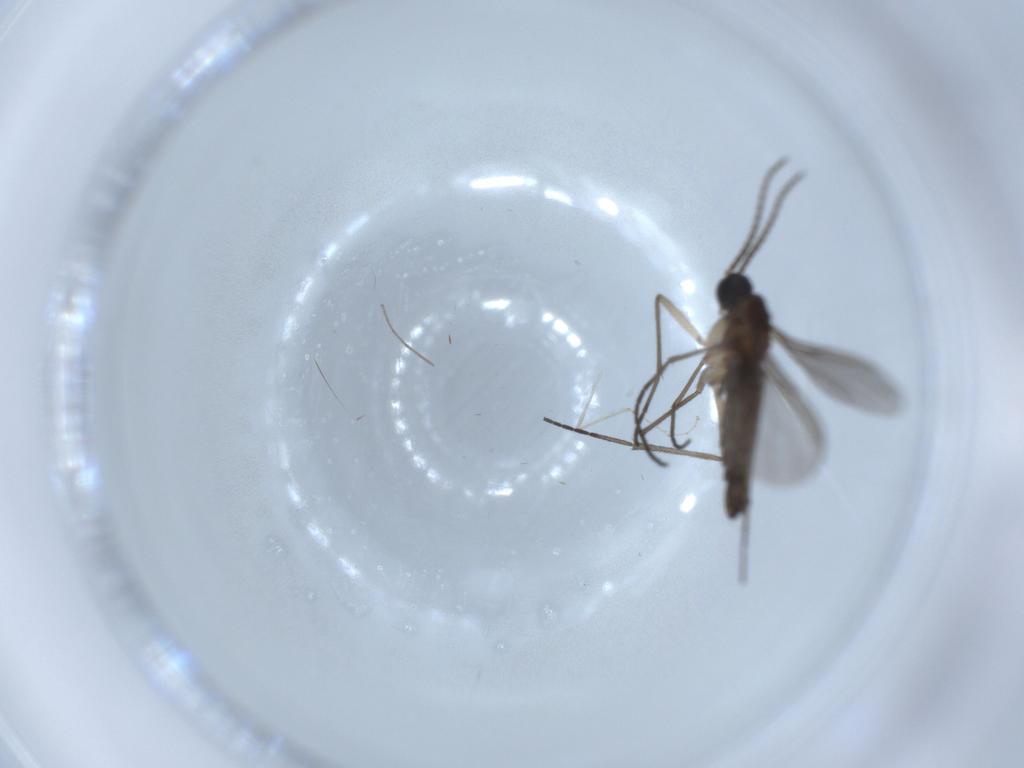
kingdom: Animalia
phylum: Arthropoda
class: Insecta
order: Diptera
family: Sciaridae
